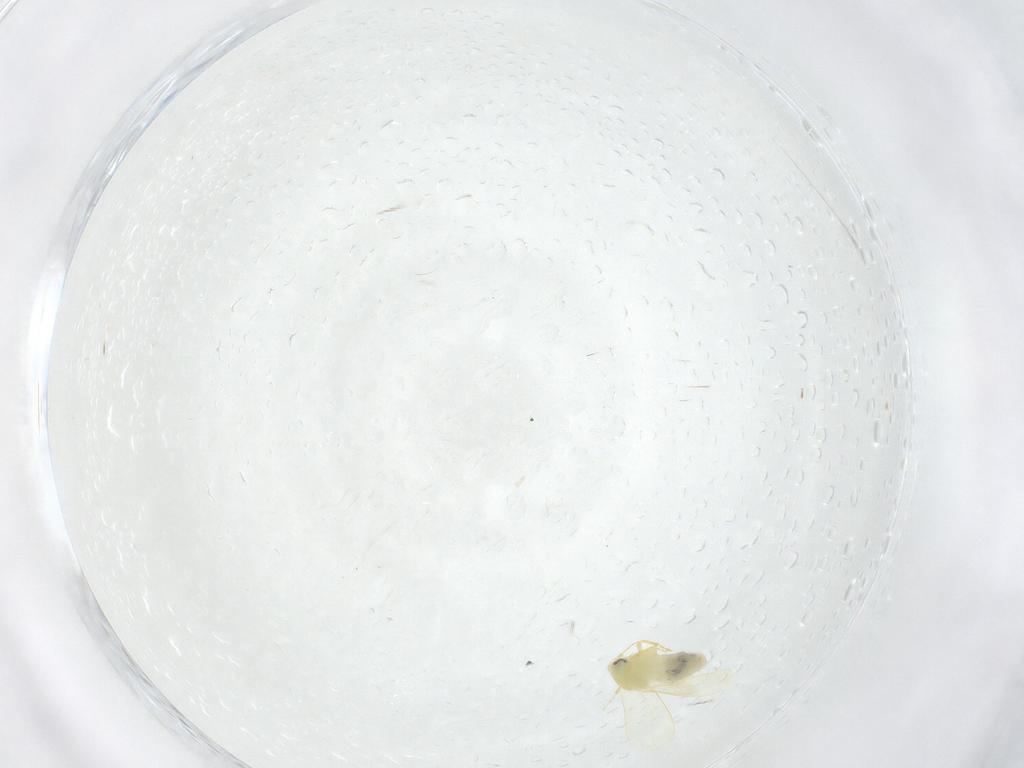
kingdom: Animalia
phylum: Arthropoda
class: Insecta
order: Hemiptera
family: Aleyrodidae
